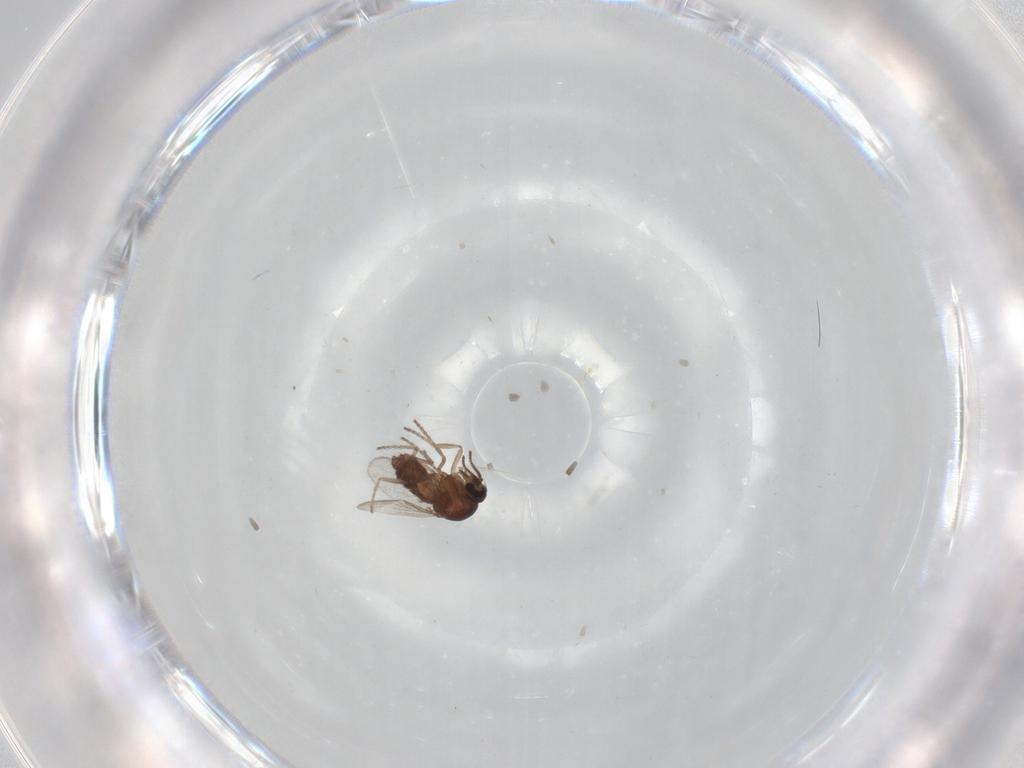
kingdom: Animalia
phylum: Arthropoda
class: Insecta
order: Diptera
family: Ceratopogonidae
